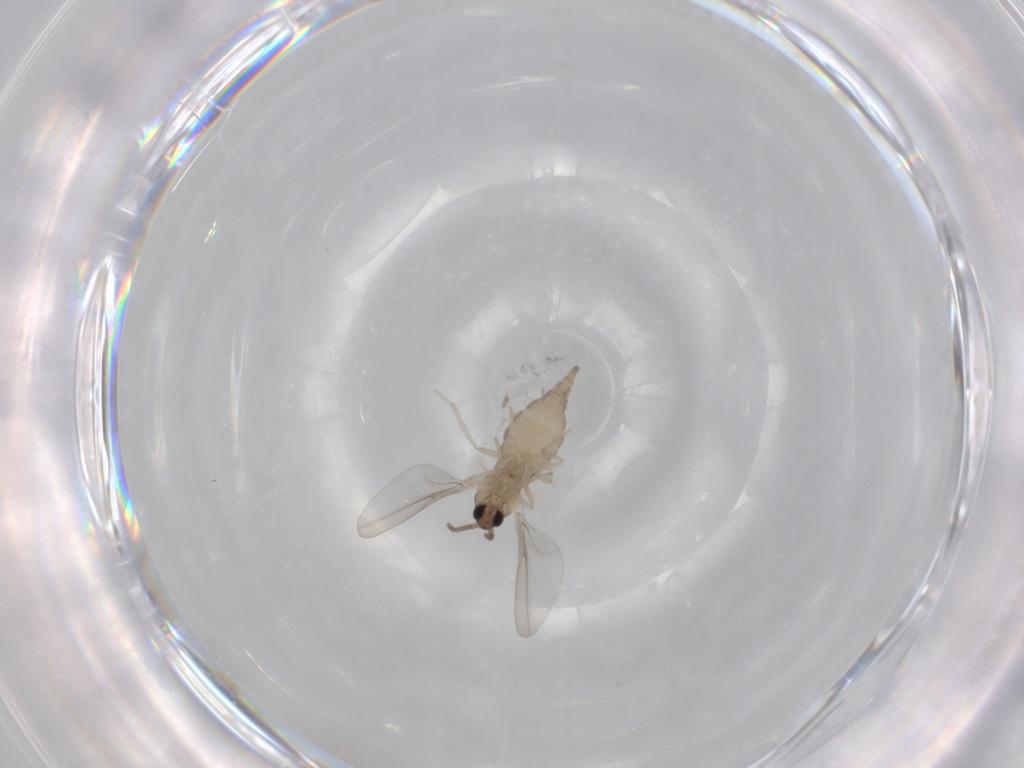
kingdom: Animalia
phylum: Arthropoda
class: Insecta
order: Diptera
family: Cecidomyiidae
